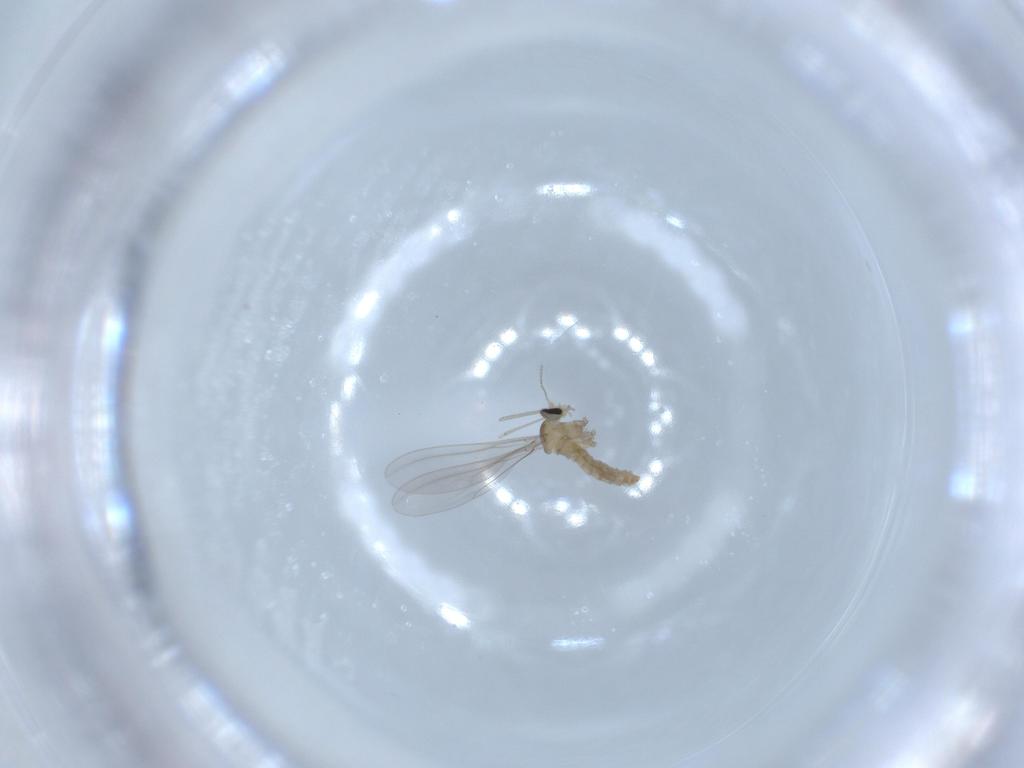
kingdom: Animalia
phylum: Arthropoda
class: Insecta
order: Diptera
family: Cecidomyiidae
